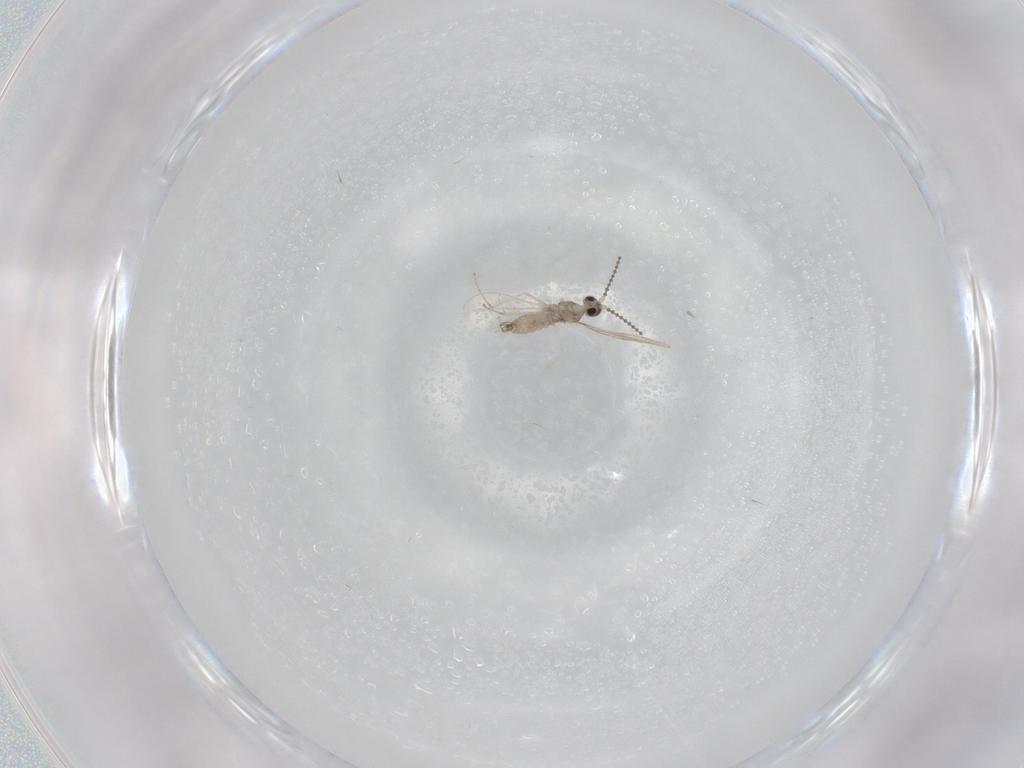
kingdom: Animalia
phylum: Arthropoda
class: Insecta
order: Diptera
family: Cecidomyiidae
